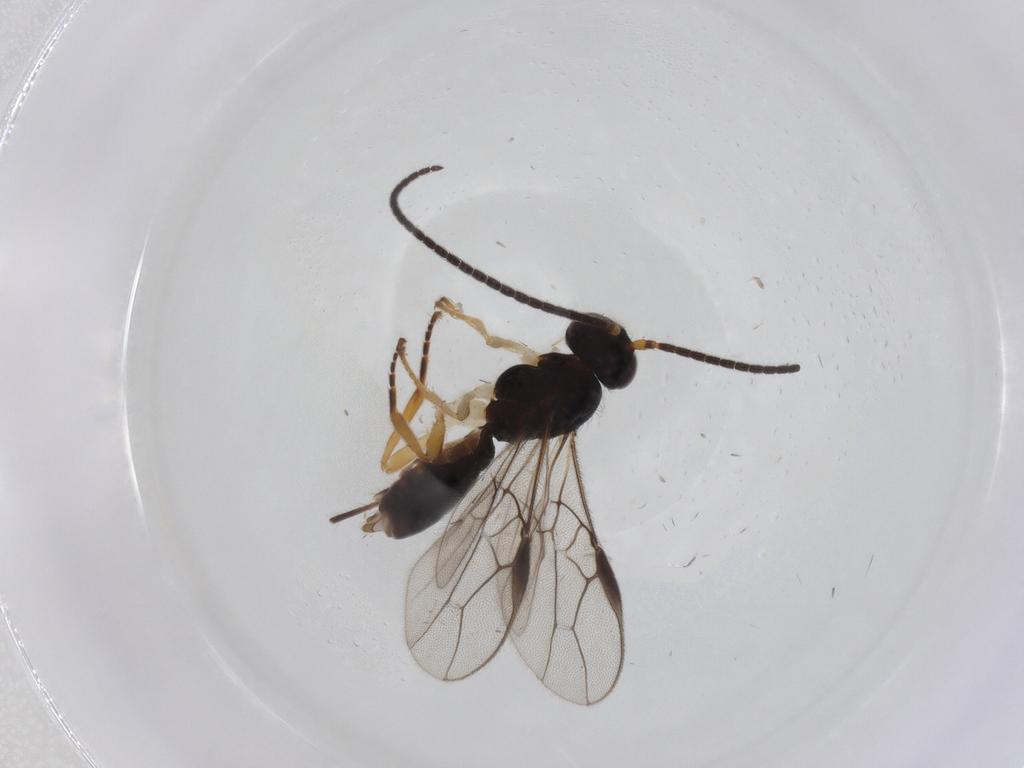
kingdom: Animalia
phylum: Arthropoda
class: Insecta
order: Hymenoptera
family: Braconidae
